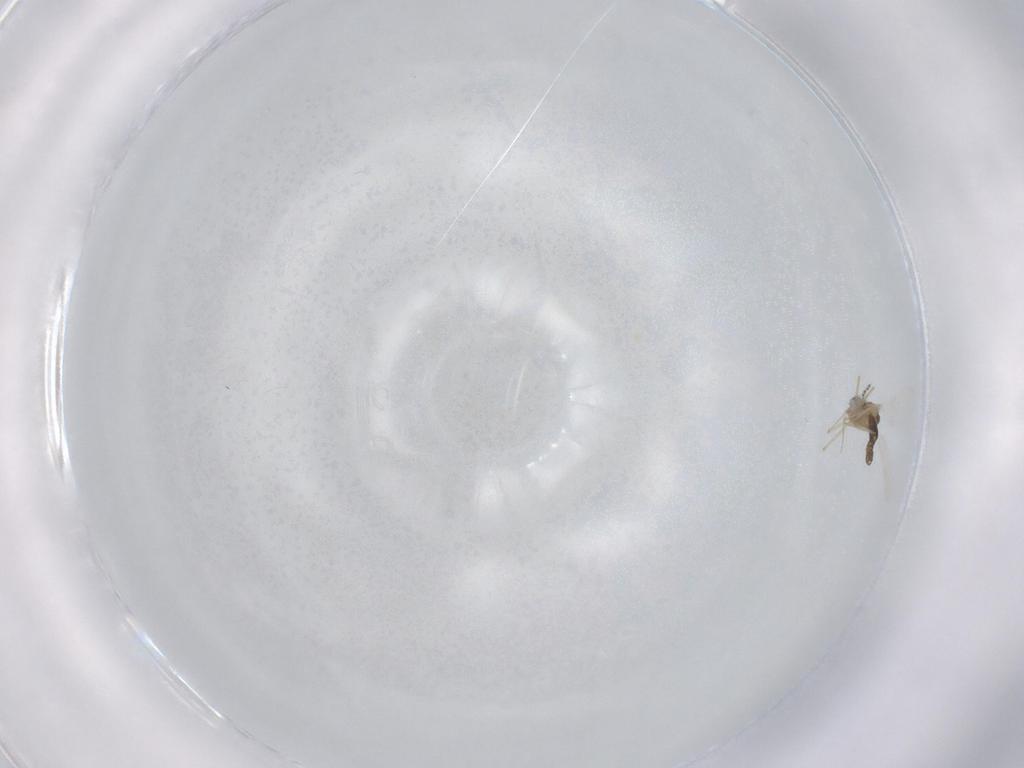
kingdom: Animalia
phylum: Arthropoda
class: Insecta
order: Diptera
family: Chironomidae
